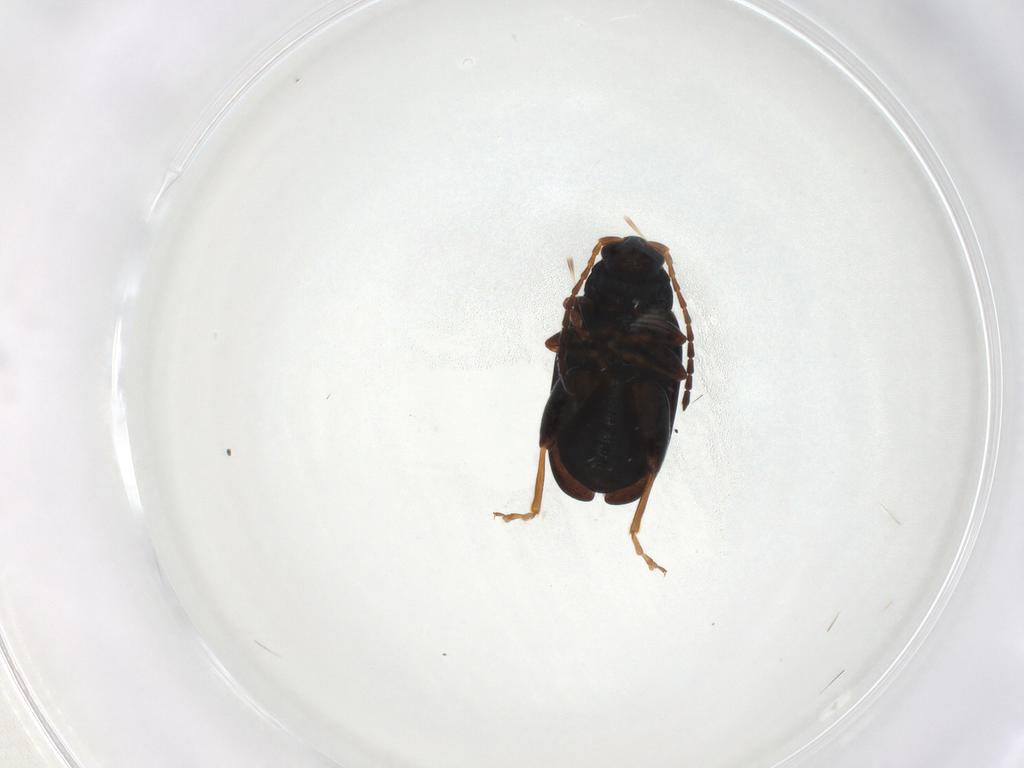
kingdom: Animalia
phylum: Arthropoda
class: Insecta
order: Coleoptera
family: Chrysomelidae
